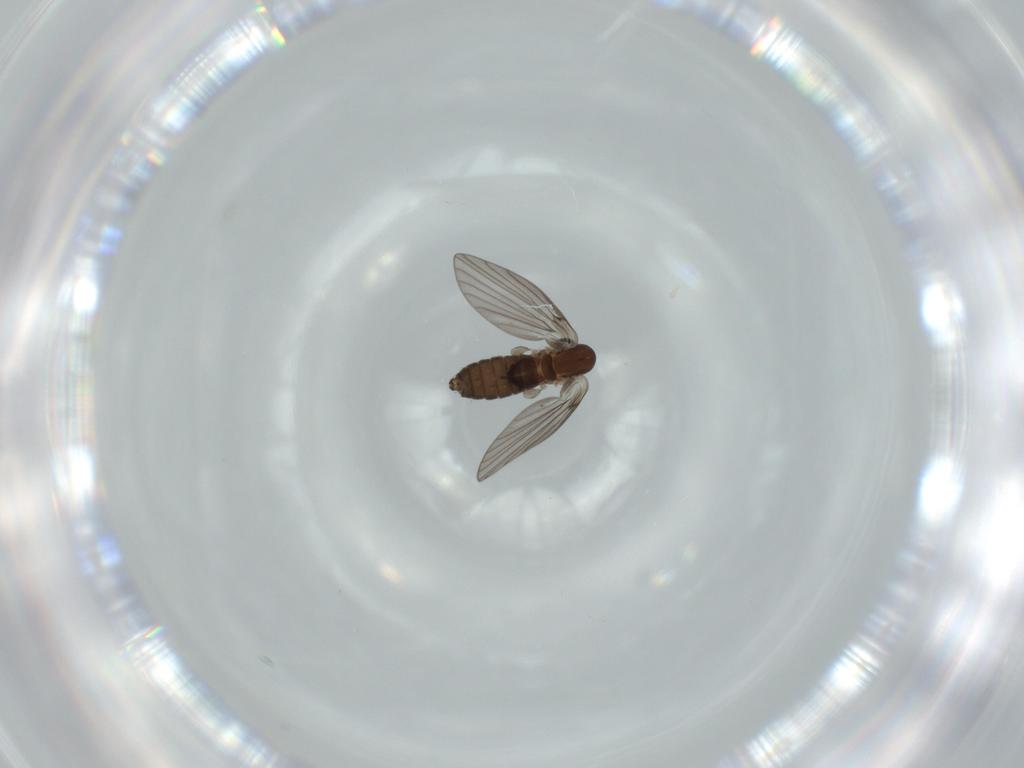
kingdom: Animalia
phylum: Arthropoda
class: Insecta
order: Diptera
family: Psychodidae
